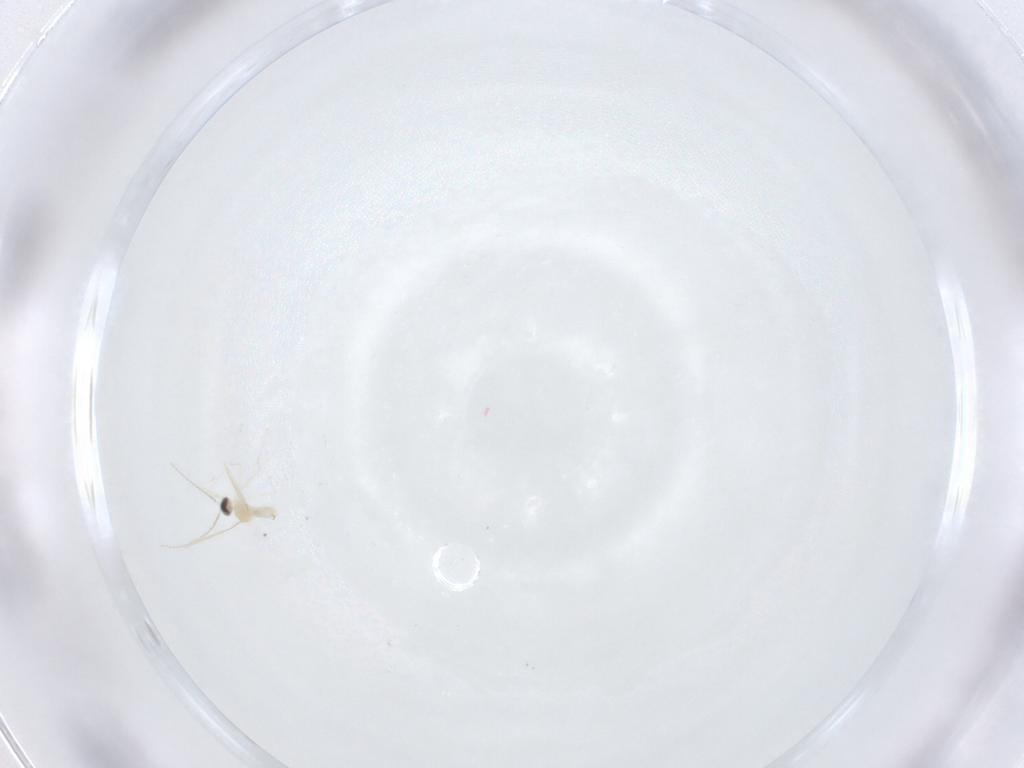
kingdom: Animalia
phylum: Arthropoda
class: Insecta
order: Diptera
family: Cecidomyiidae
